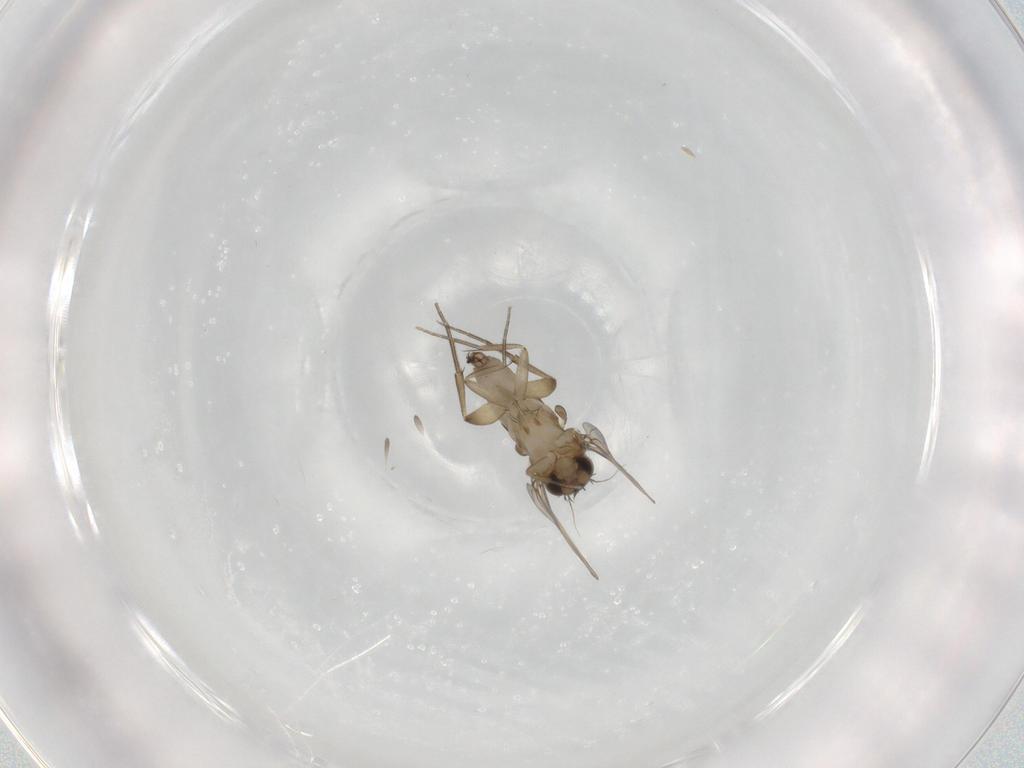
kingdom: Animalia
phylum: Arthropoda
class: Insecta
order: Diptera
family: Phoridae
